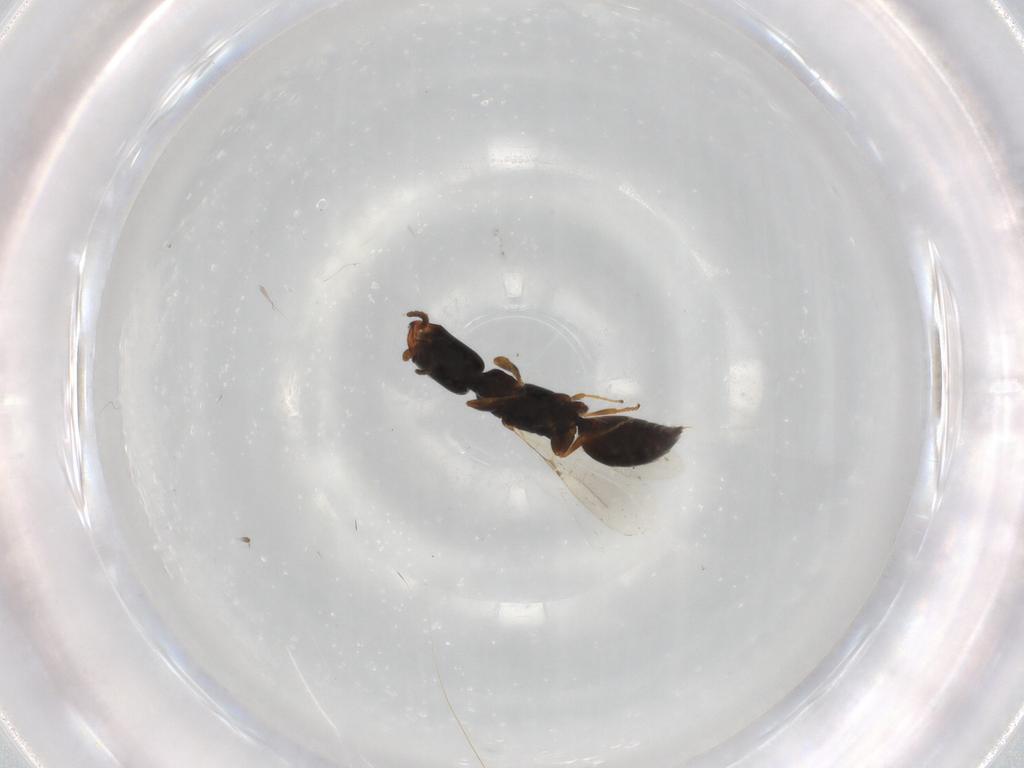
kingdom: Animalia
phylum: Arthropoda
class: Insecta
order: Hymenoptera
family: Bethylidae
